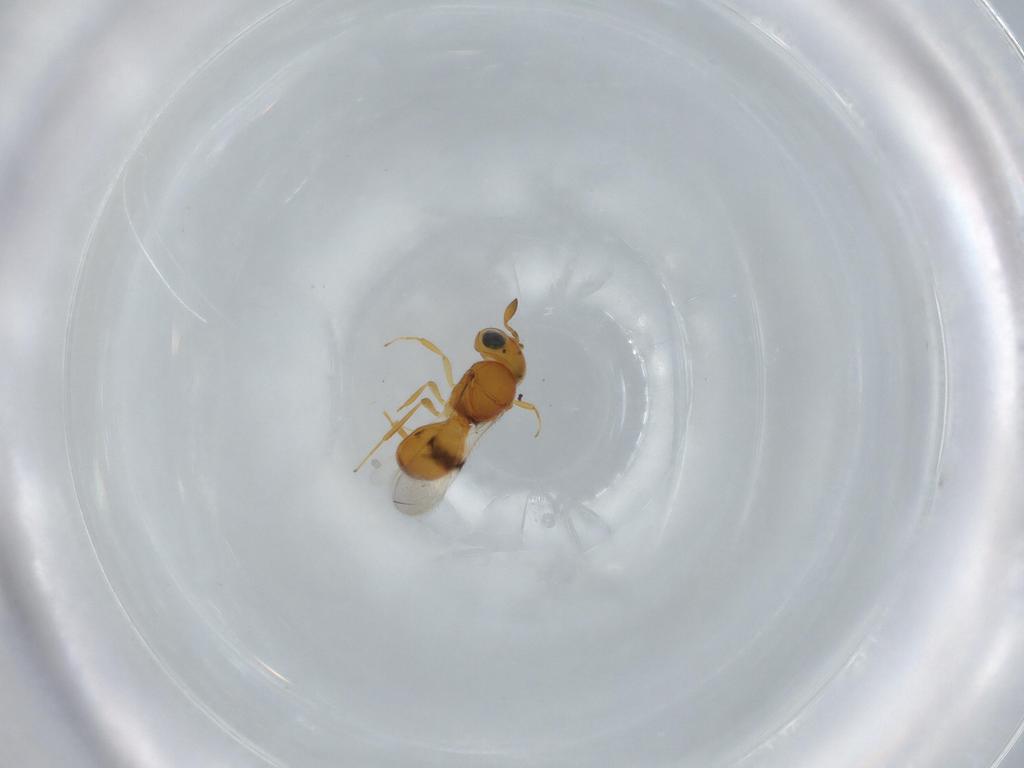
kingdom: Animalia
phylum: Arthropoda
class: Insecta
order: Hymenoptera
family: Scelionidae
